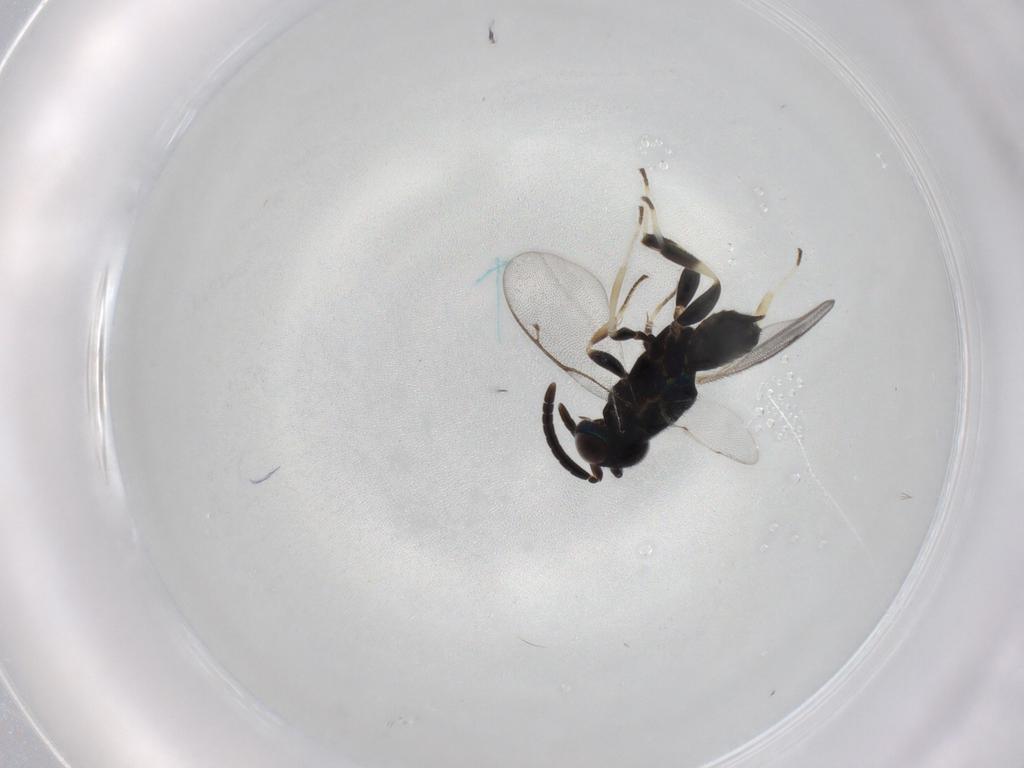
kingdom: Animalia
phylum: Arthropoda
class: Insecta
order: Hymenoptera
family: Eupelmidae
